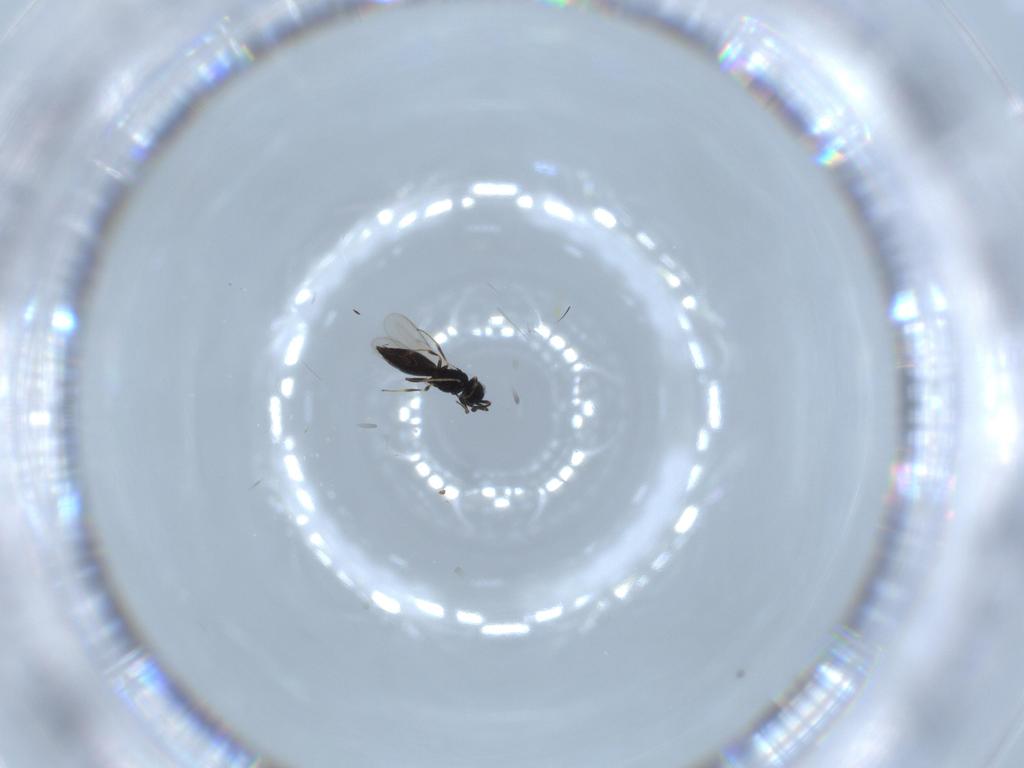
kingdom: Animalia
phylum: Arthropoda
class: Insecta
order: Hymenoptera
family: Scelionidae
